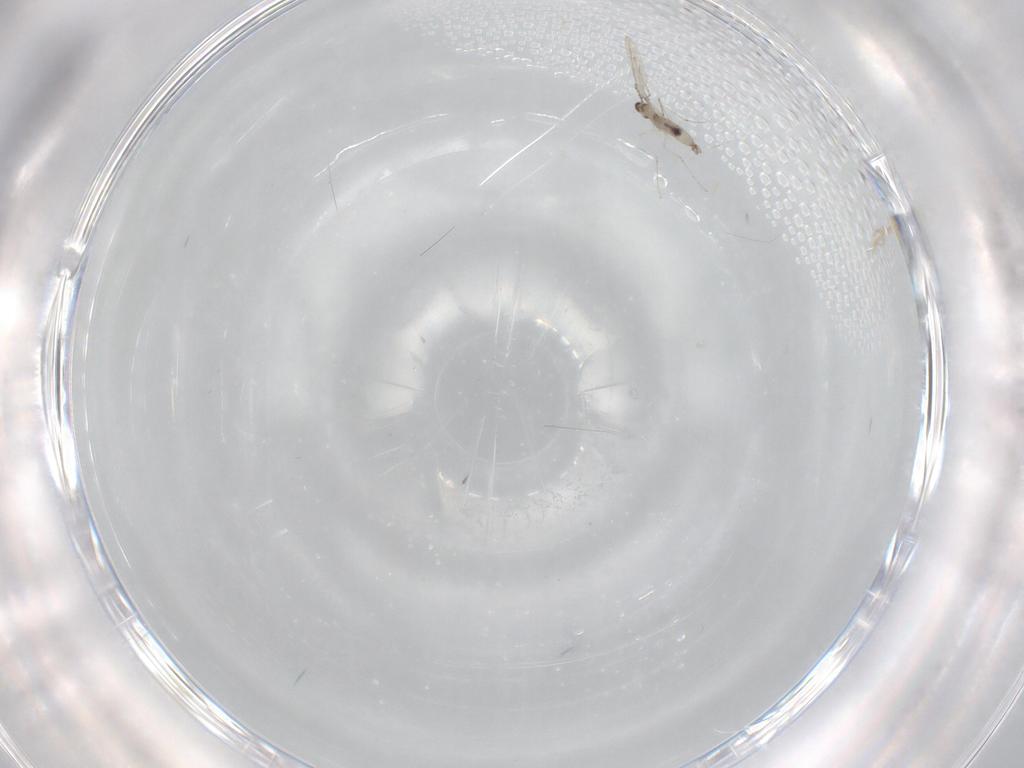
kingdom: Animalia
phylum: Arthropoda
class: Insecta
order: Diptera
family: Cecidomyiidae
